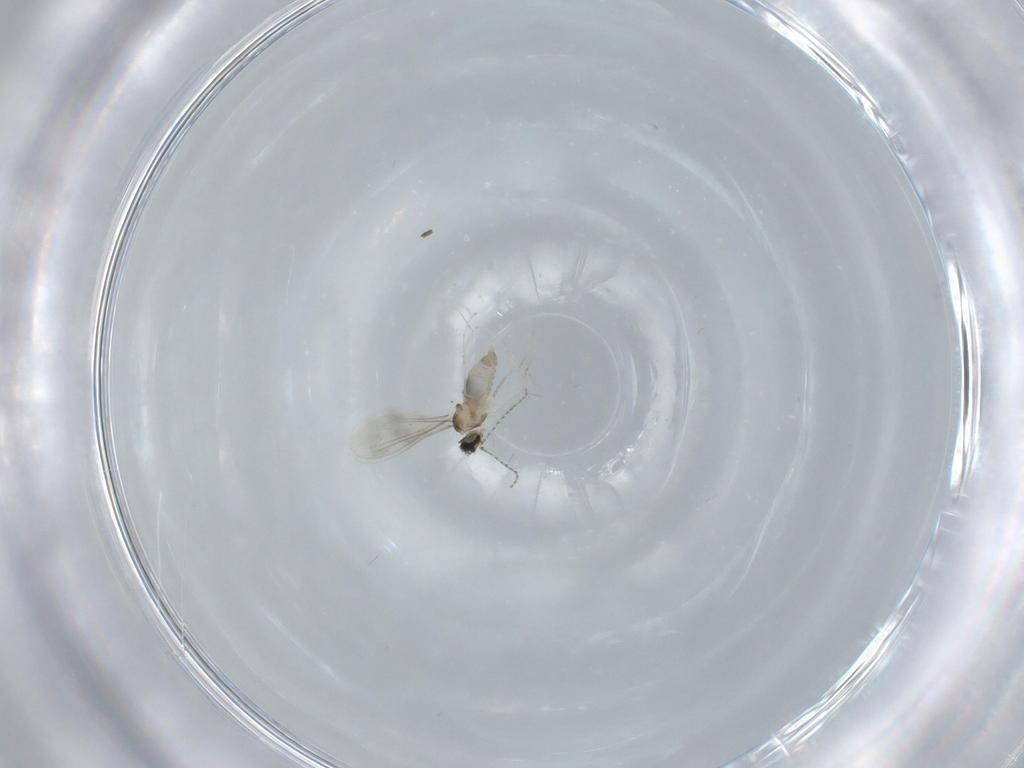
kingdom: Animalia
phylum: Arthropoda
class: Insecta
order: Diptera
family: Cecidomyiidae
